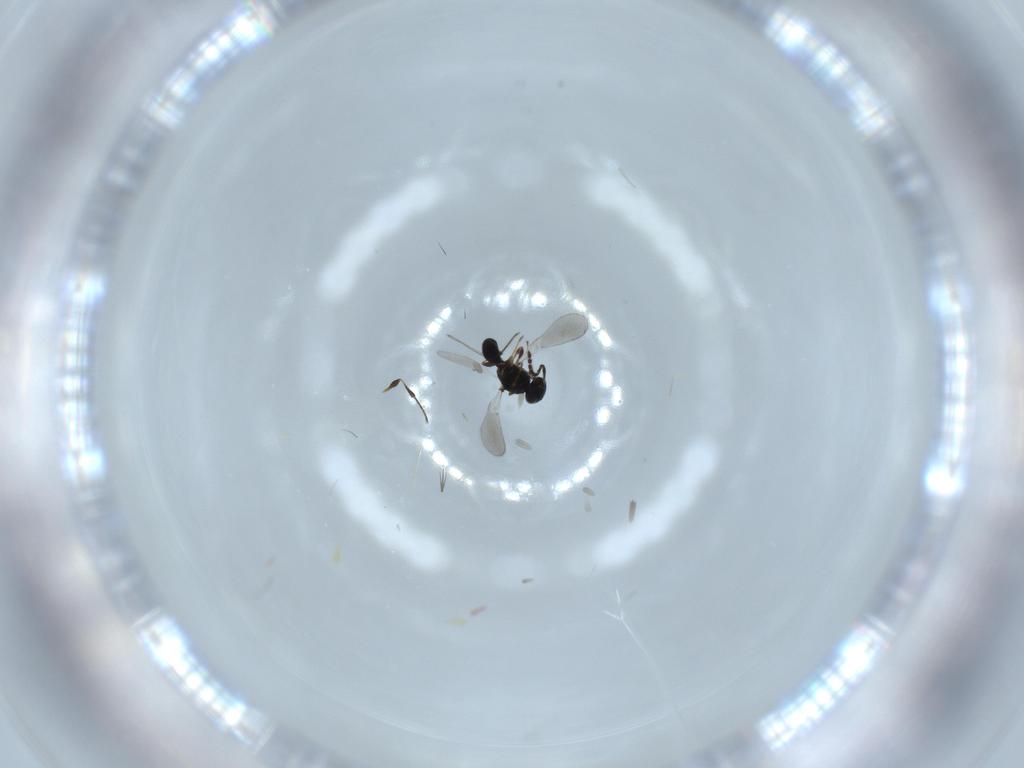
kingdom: Animalia
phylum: Arthropoda
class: Insecta
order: Hymenoptera
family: Platygastridae
